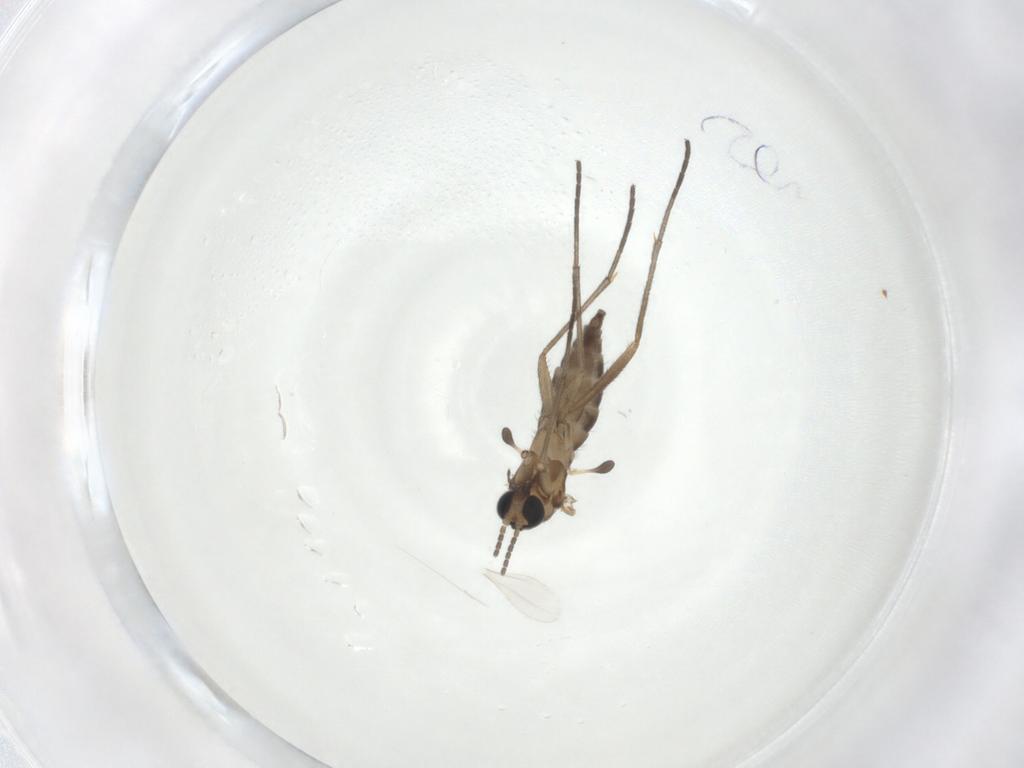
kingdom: Animalia
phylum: Arthropoda
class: Insecta
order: Diptera
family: Sciaridae
